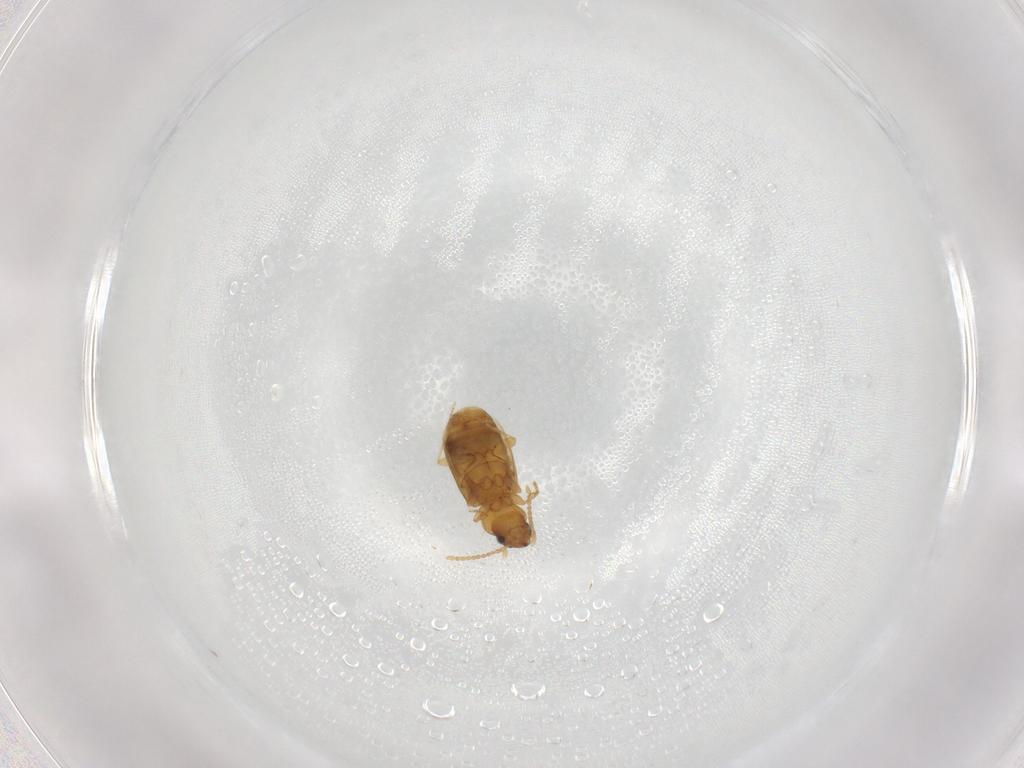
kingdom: Animalia
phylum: Arthropoda
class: Insecta
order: Coleoptera
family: Carabidae
